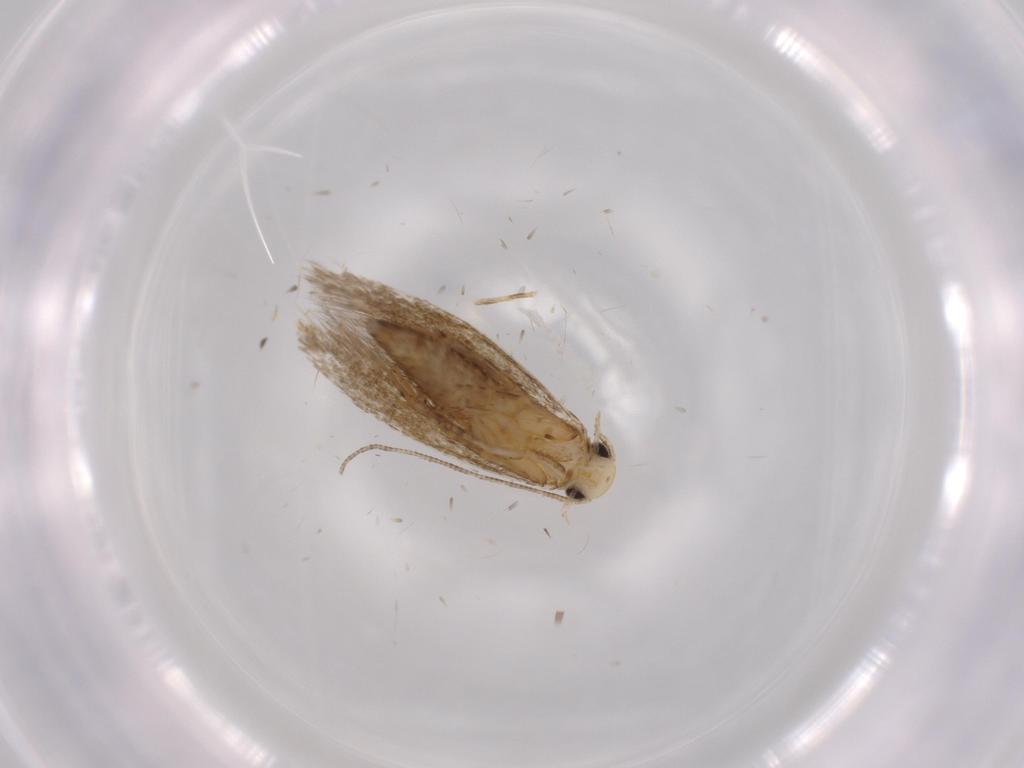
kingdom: Animalia
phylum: Arthropoda
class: Insecta
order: Lepidoptera
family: Tineidae
